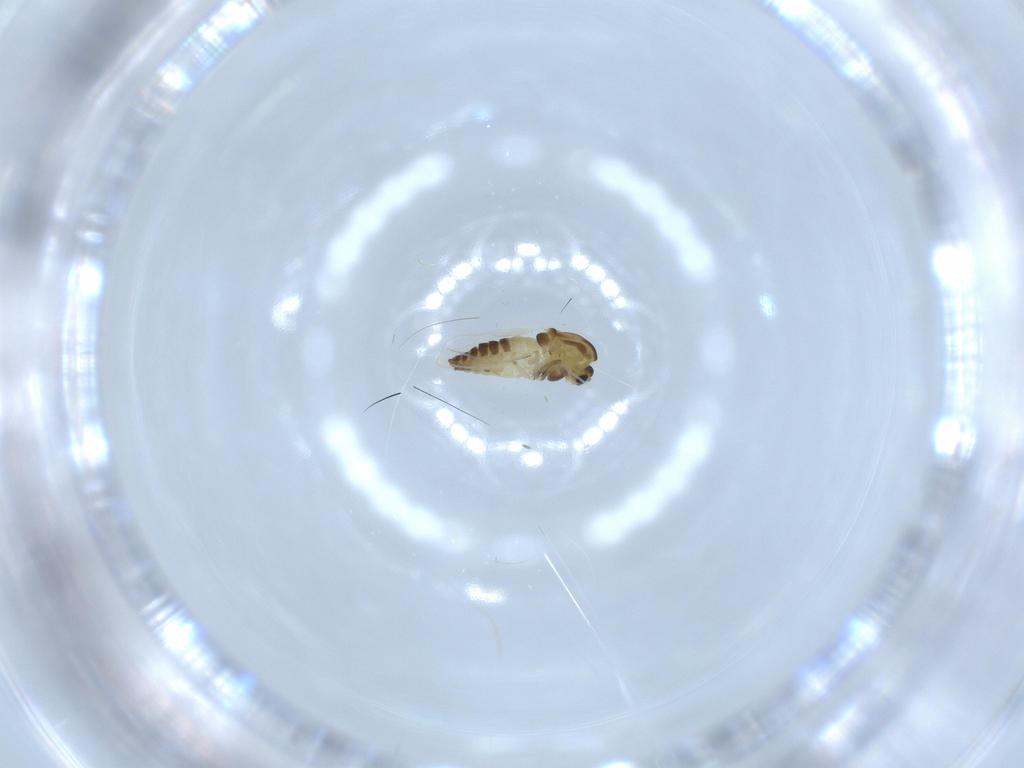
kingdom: Animalia
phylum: Arthropoda
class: Insecta
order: Diptera
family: Chironomidae
